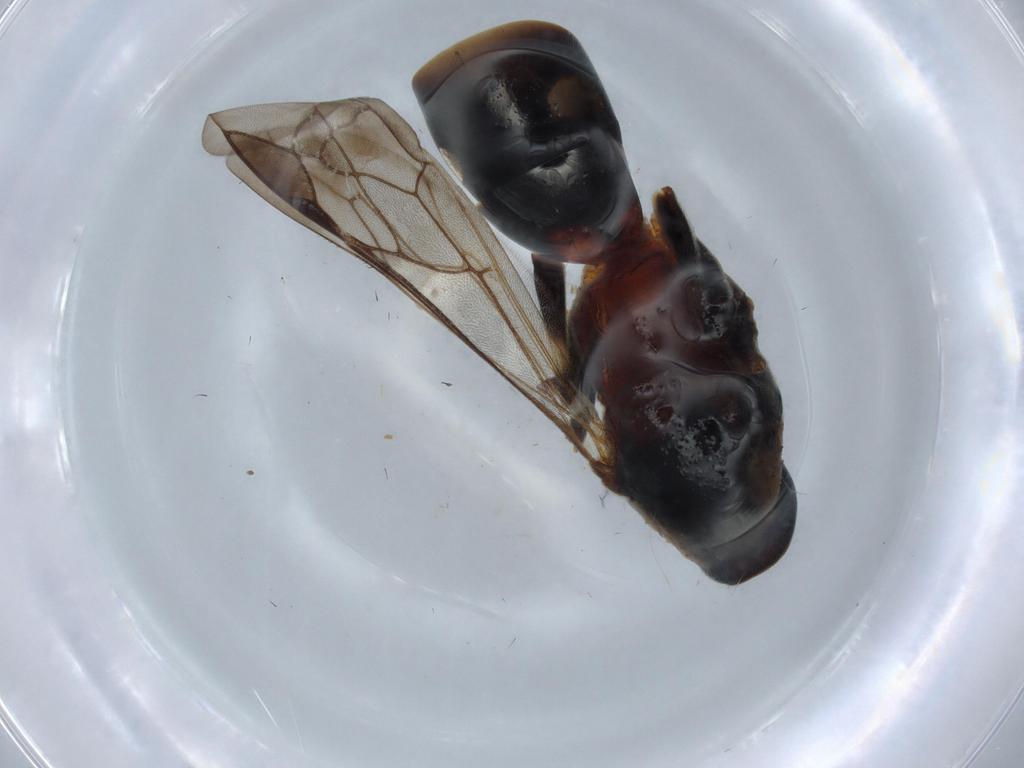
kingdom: Animalia
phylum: Arthropoda
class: Insecta
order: Hymenoptera
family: Chalcididae
